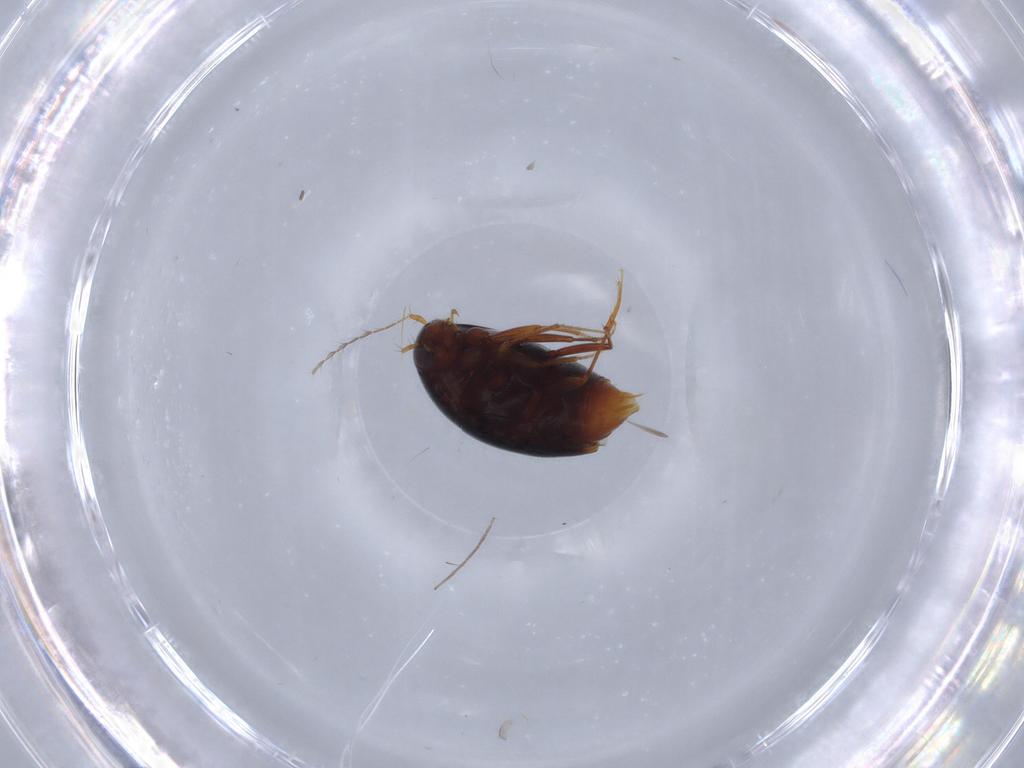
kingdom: Animalia
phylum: Arthropoda
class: Insecta
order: Coleoptera
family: Staphylinidae
